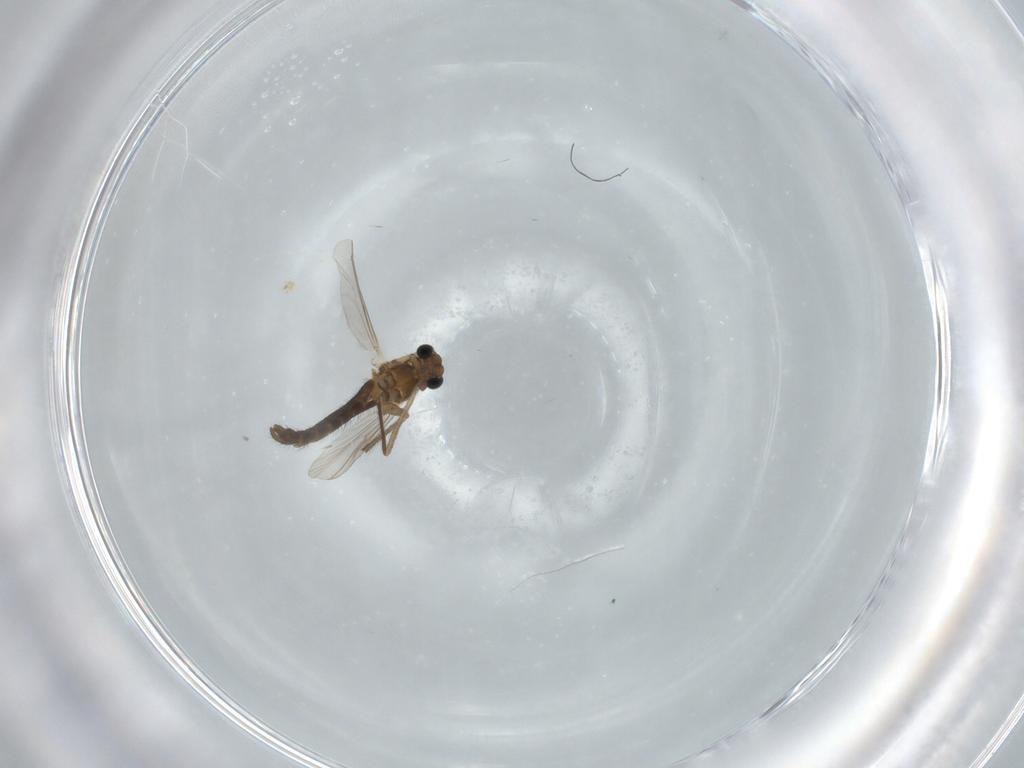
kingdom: Animalia
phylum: Arthropoda
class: Insecta
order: Diptera
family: Chironomidae
